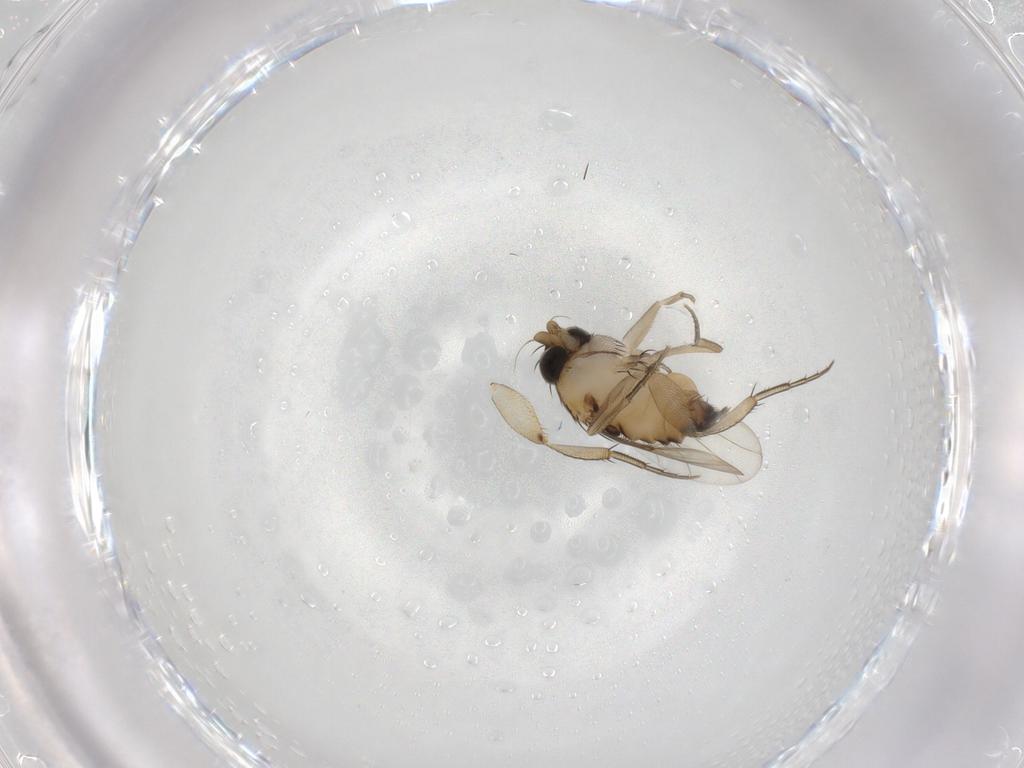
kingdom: Animalia
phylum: Arthropoda
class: Insecta
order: Diptera
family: Phoridae
